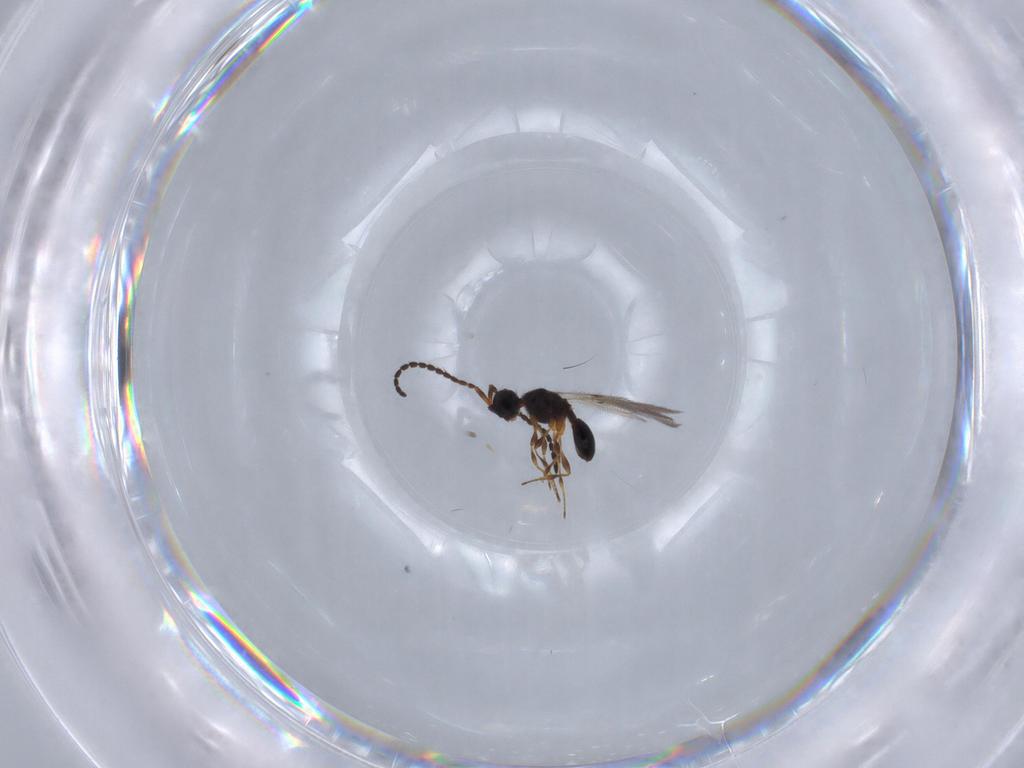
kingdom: Animalia
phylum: Arthropoda
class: Insecta
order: Hymenoptera
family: Diapriidae
